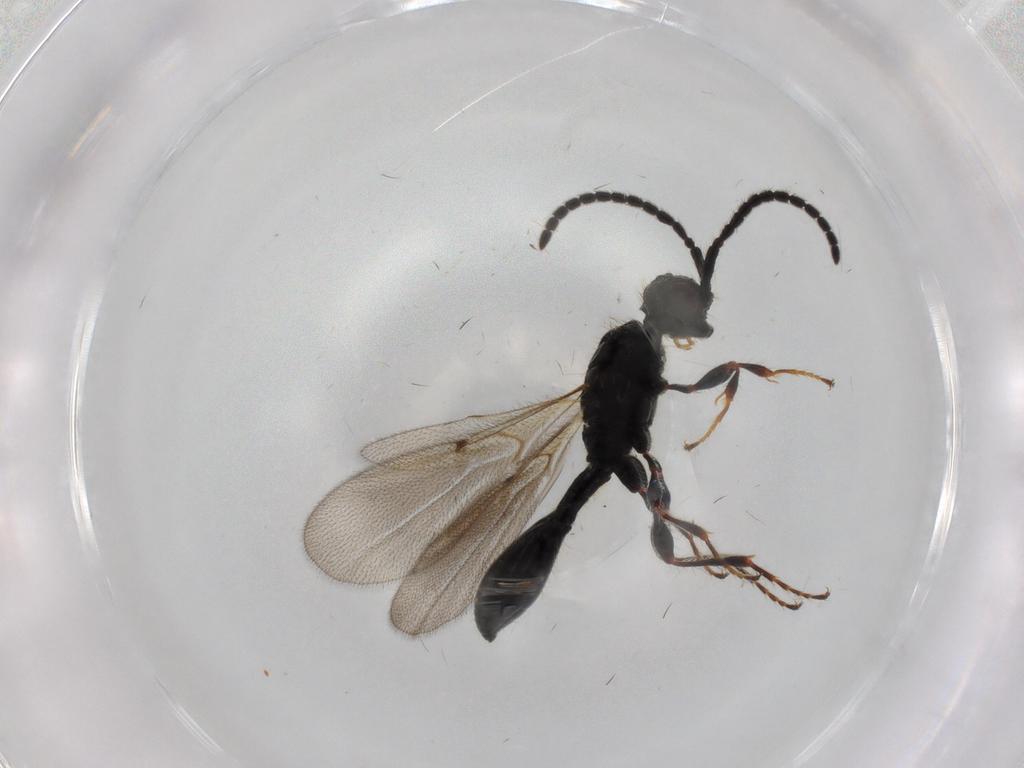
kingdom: Animalia
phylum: Arthropoda
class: Insecta
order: Hymenoptera
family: Diapriidae
